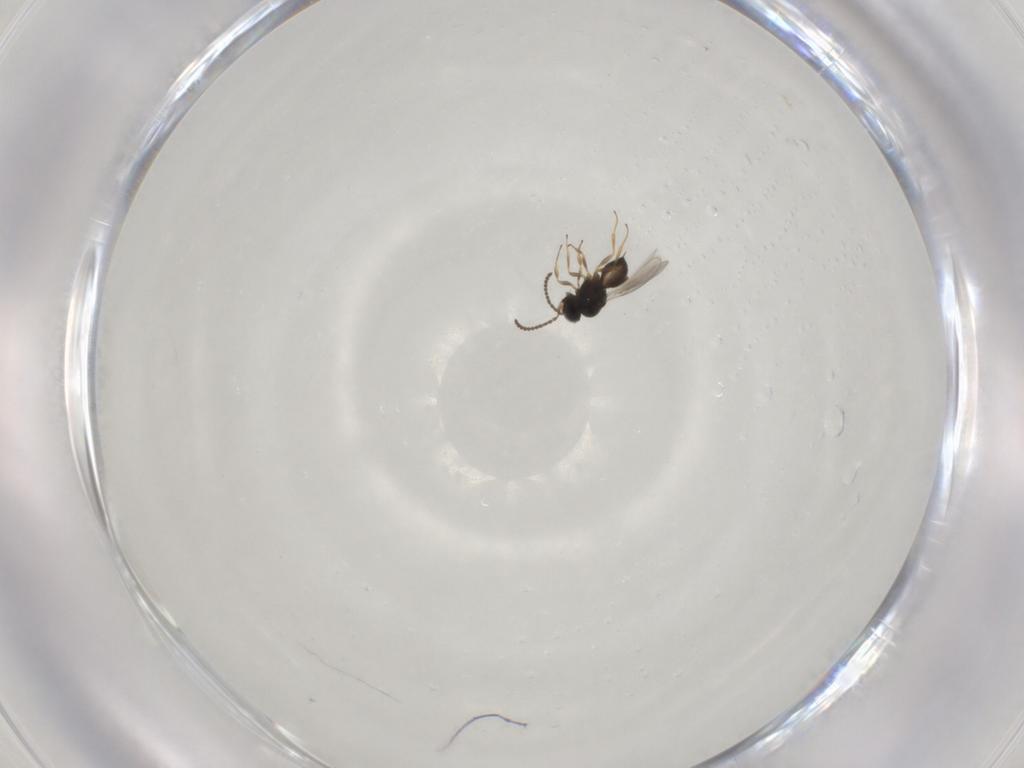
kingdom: Animalia
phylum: Arthropoda
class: Insecta
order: Hymenoptera
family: Scelionidae
